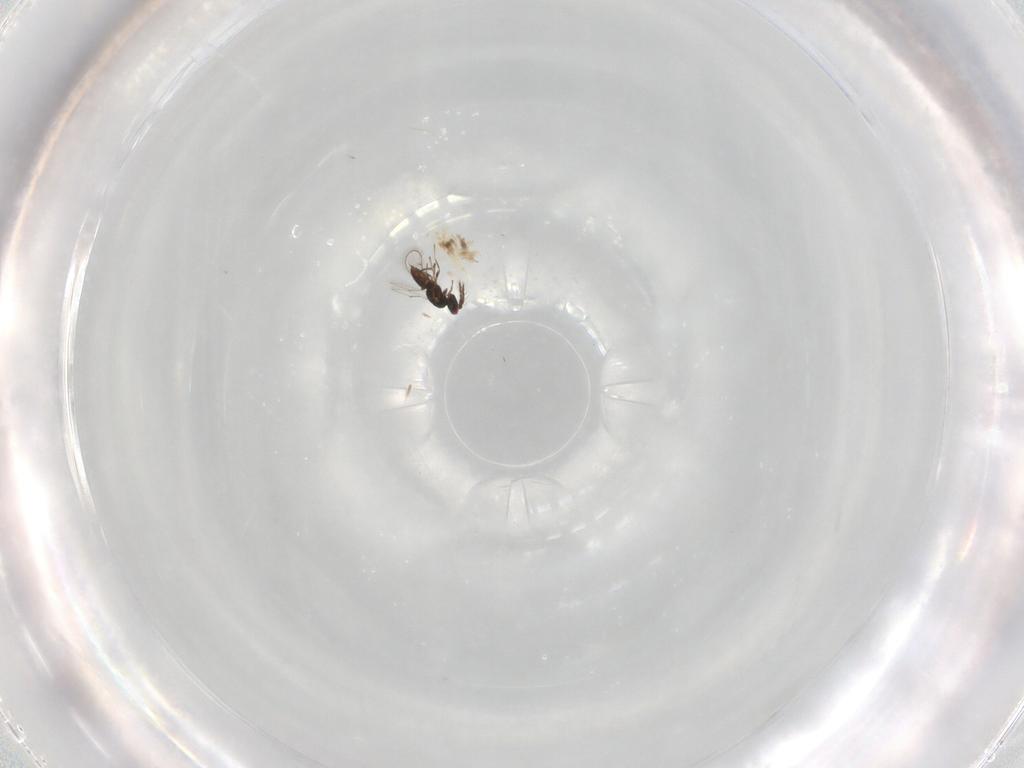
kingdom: Animalia
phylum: Arthropoda
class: Insecta
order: Hymenoptera
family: Eulophidae
